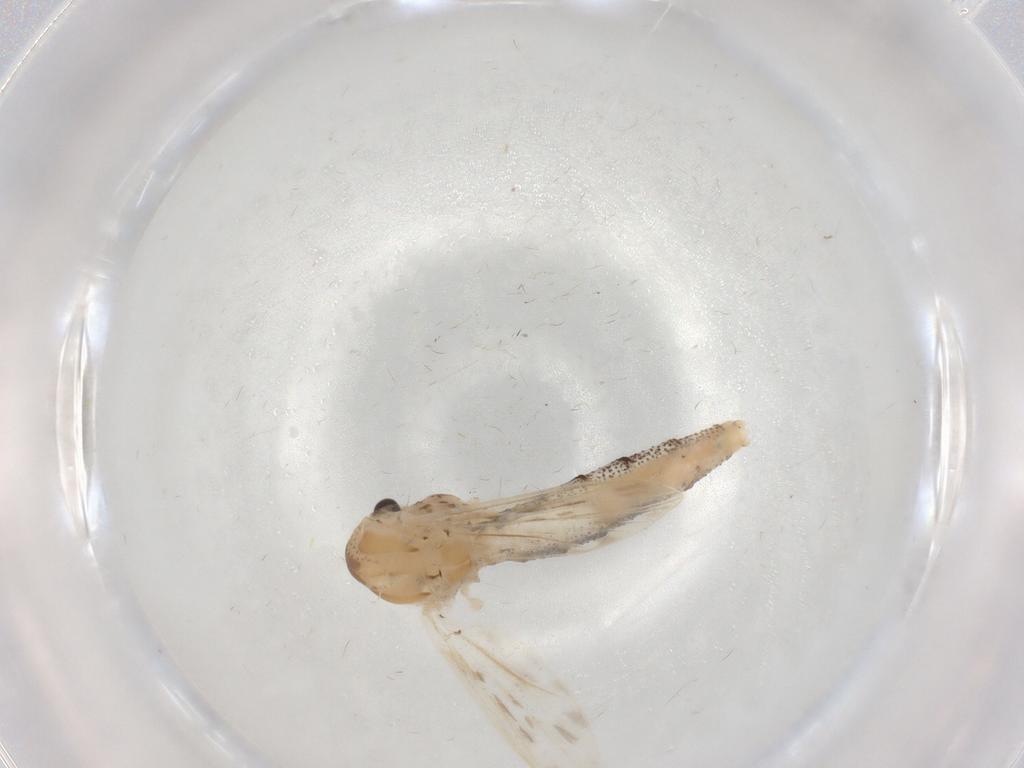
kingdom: Animalia
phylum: Arthropoda
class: Insecta
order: Diptera
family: Chaoboridae
